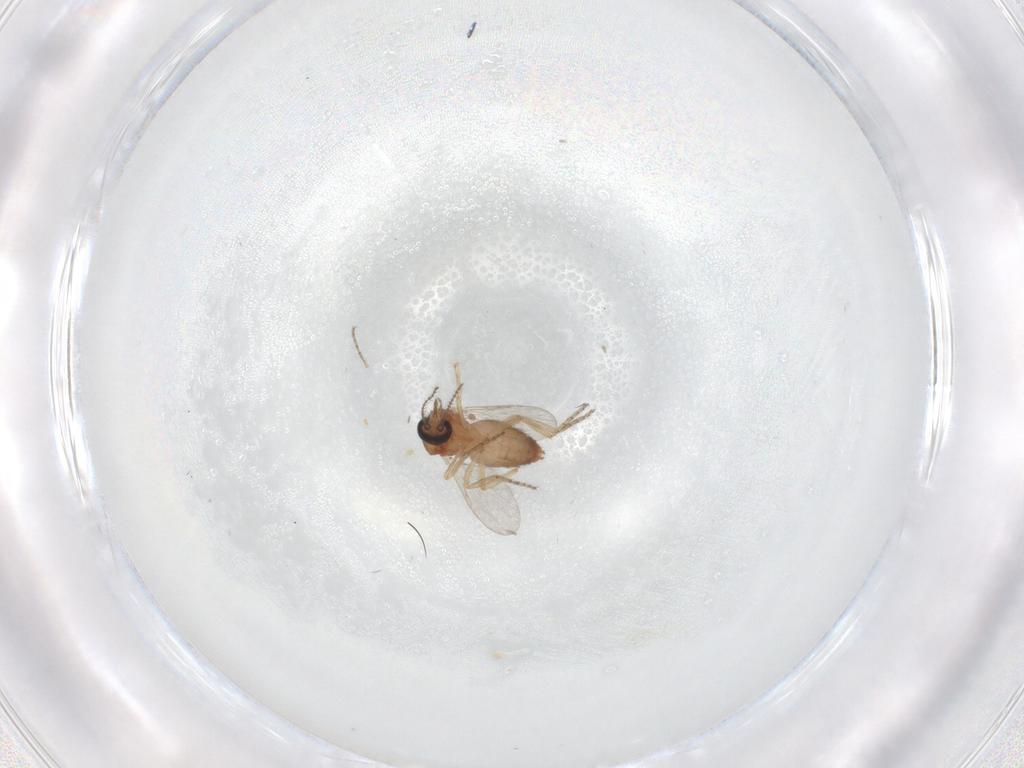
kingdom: Animalia
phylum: Arthropoda
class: Insecta
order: Diptera
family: Ceratopogonidae
